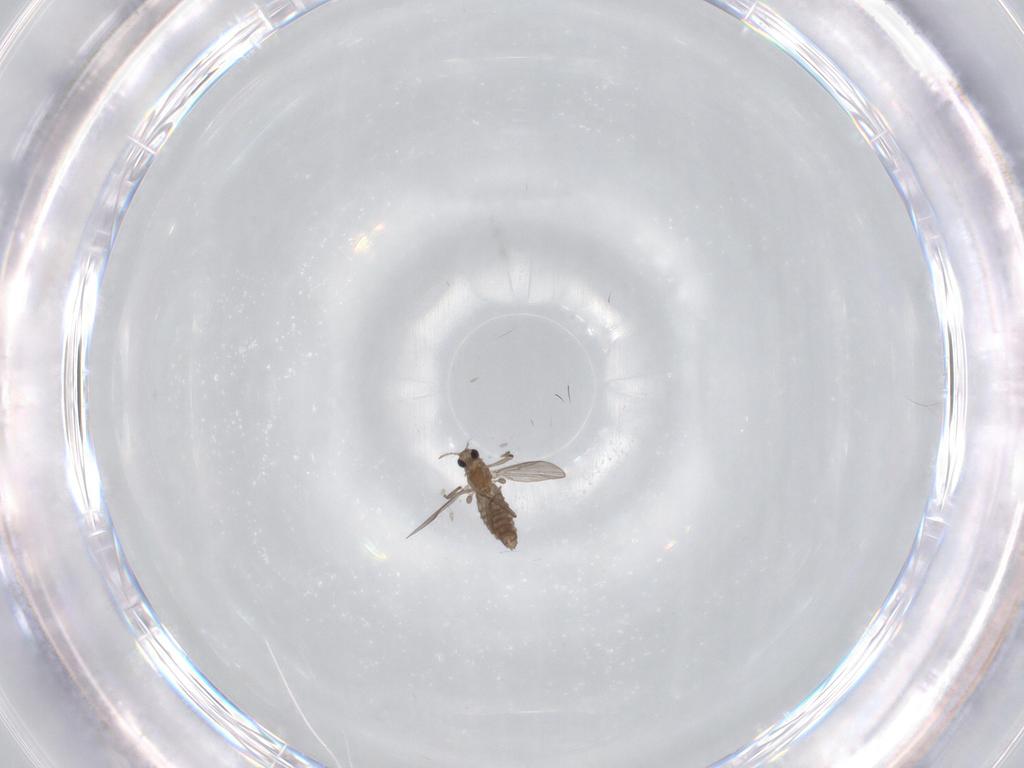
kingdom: Animalia
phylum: Arthropoda
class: Insecta
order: Diptera
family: Chironomidae
